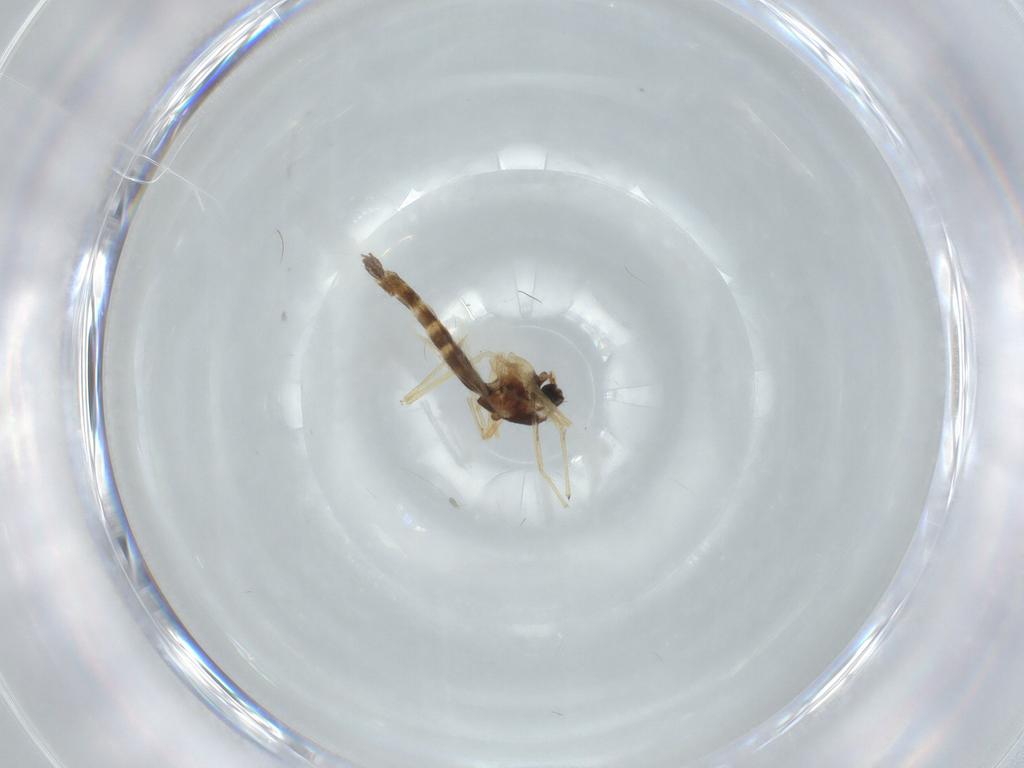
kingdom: Animalia
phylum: Arthropoda
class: Insecta
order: Diptera
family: Chironomidae
